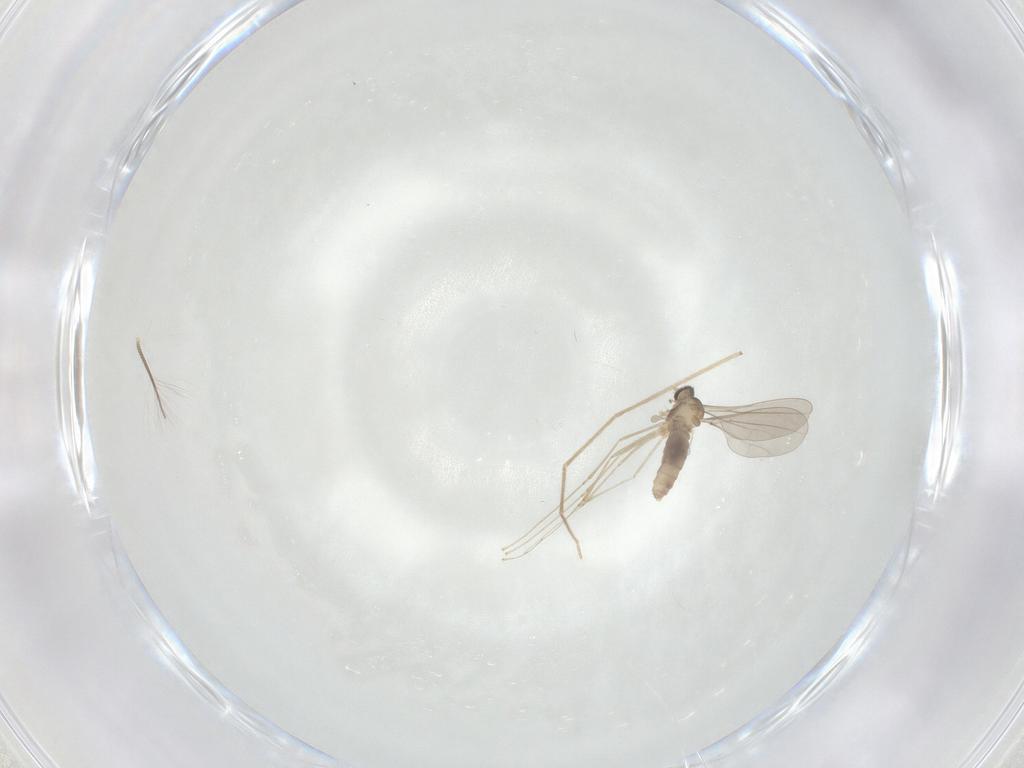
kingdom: Animalia
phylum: Arthropoda
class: Insecta
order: Diptera
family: Cecidomyiidae
